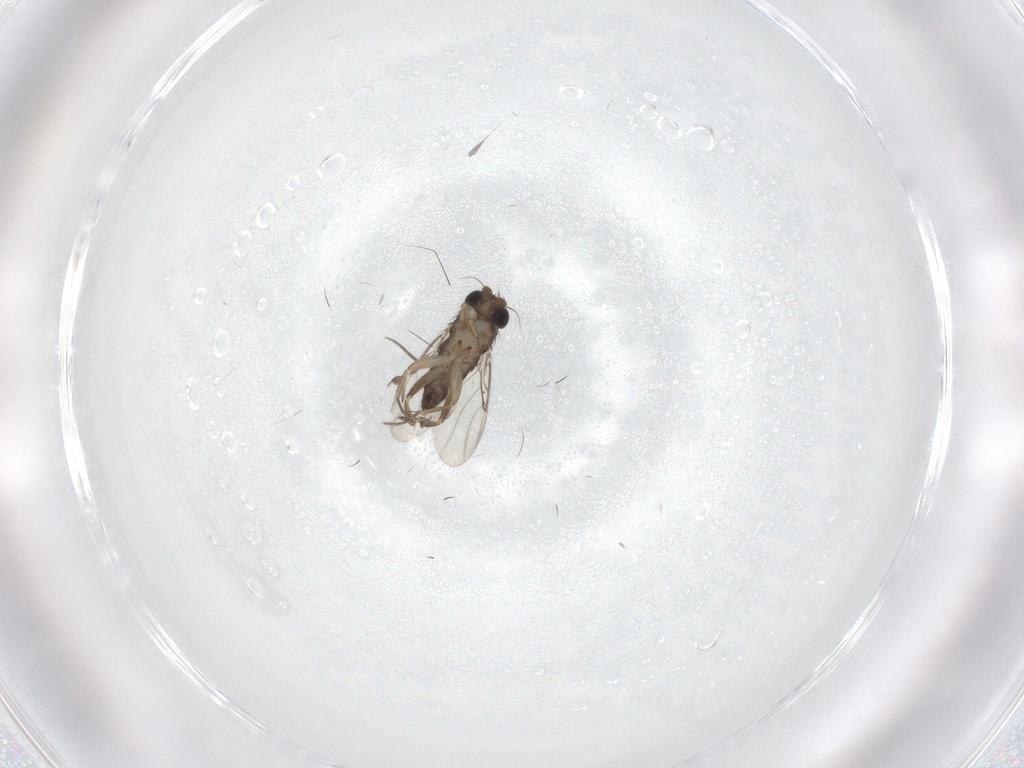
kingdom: Animalia
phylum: Arthropoda
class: Insecta
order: Diptera
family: Phoridae
